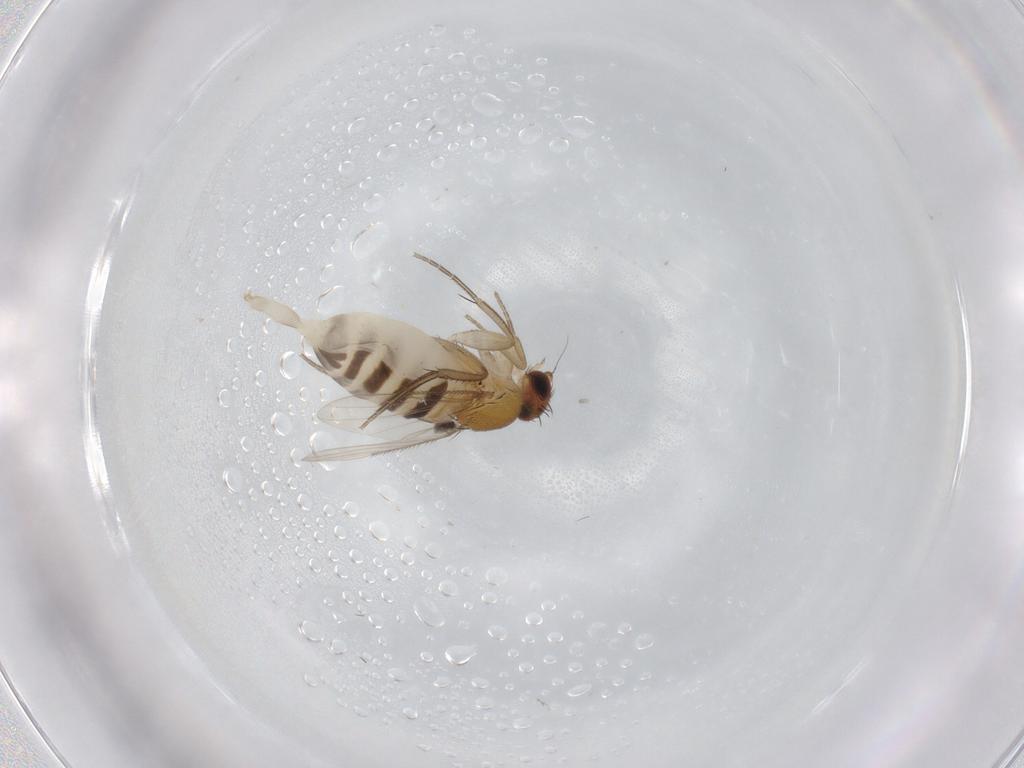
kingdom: Animalia
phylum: Arthropoda
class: Insecta
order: Diptera
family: Phoridae
